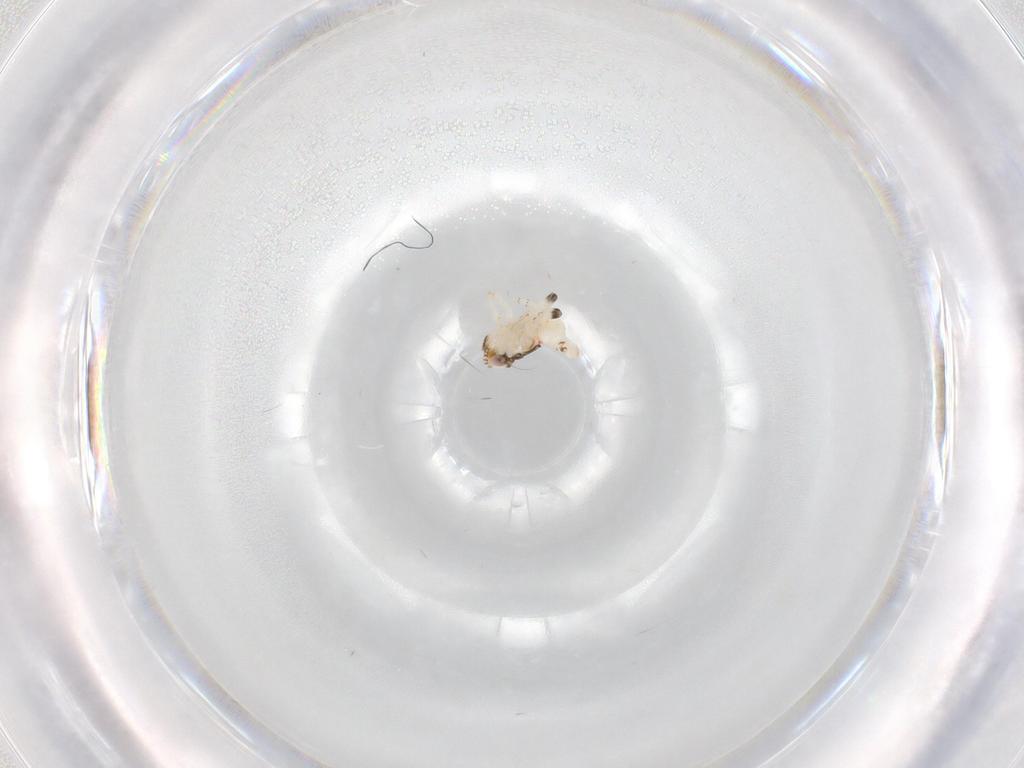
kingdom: Animalia
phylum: Arthropoda
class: Insecta
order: Hemiptera
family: Nogodinidae
